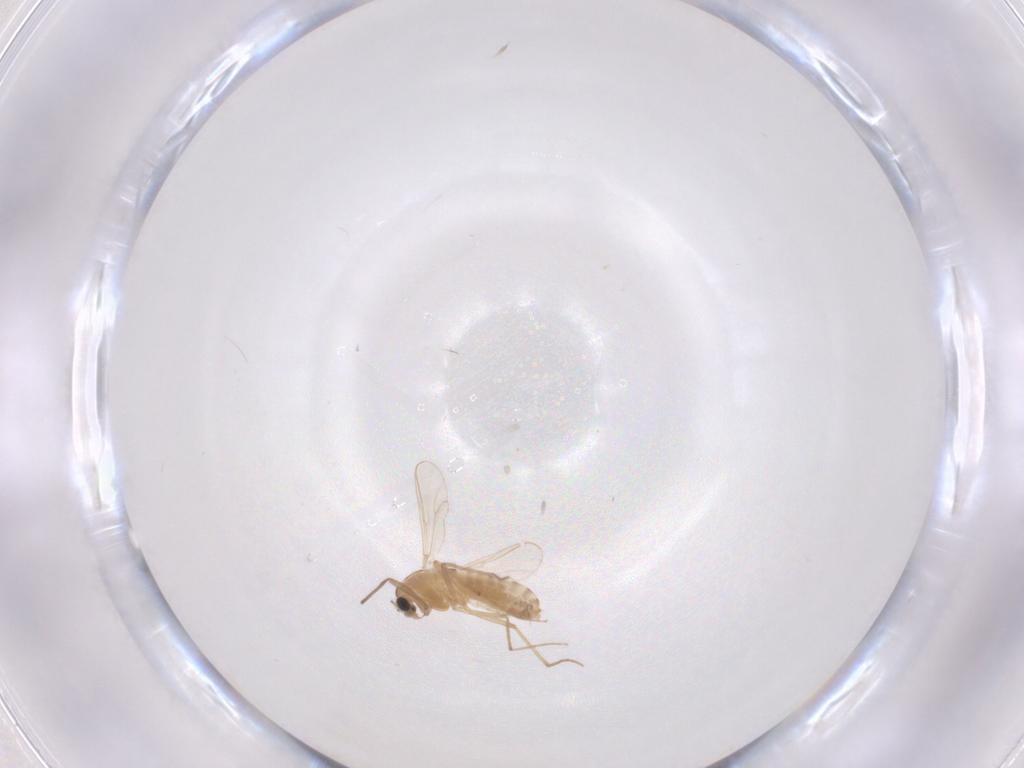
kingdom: Animalia
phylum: Arthropoda
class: Insecta
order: Diptera
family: Chironomidae
